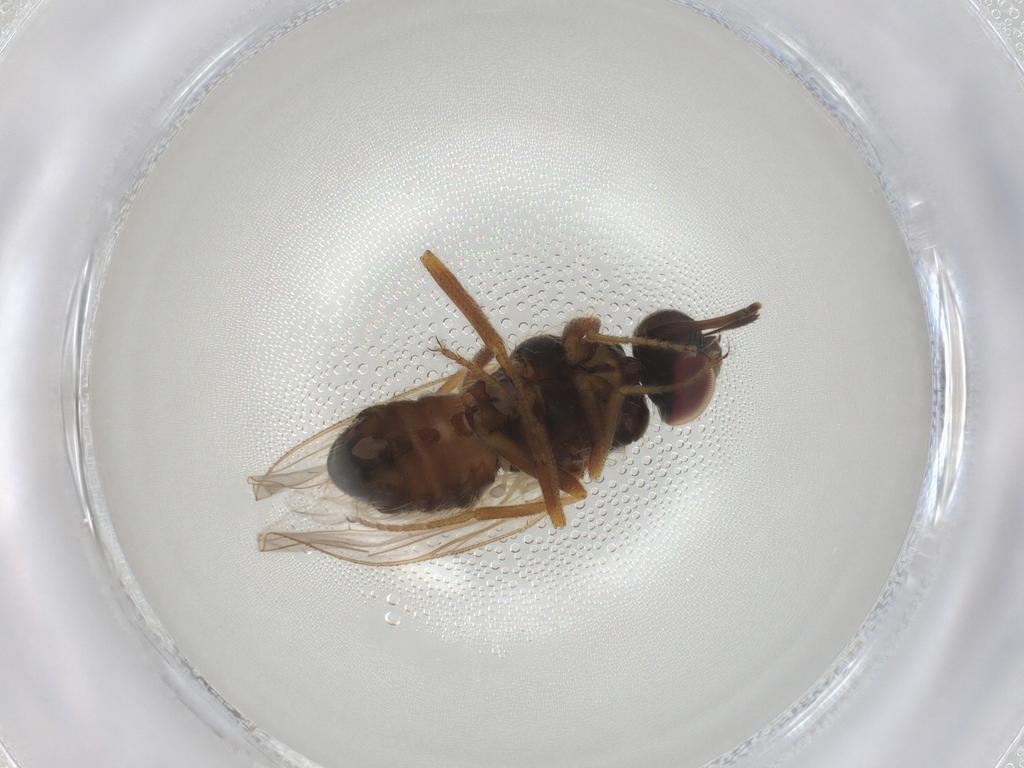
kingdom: Animalia
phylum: Arthropoda
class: Insecta
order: Diptera
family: Muscidae
